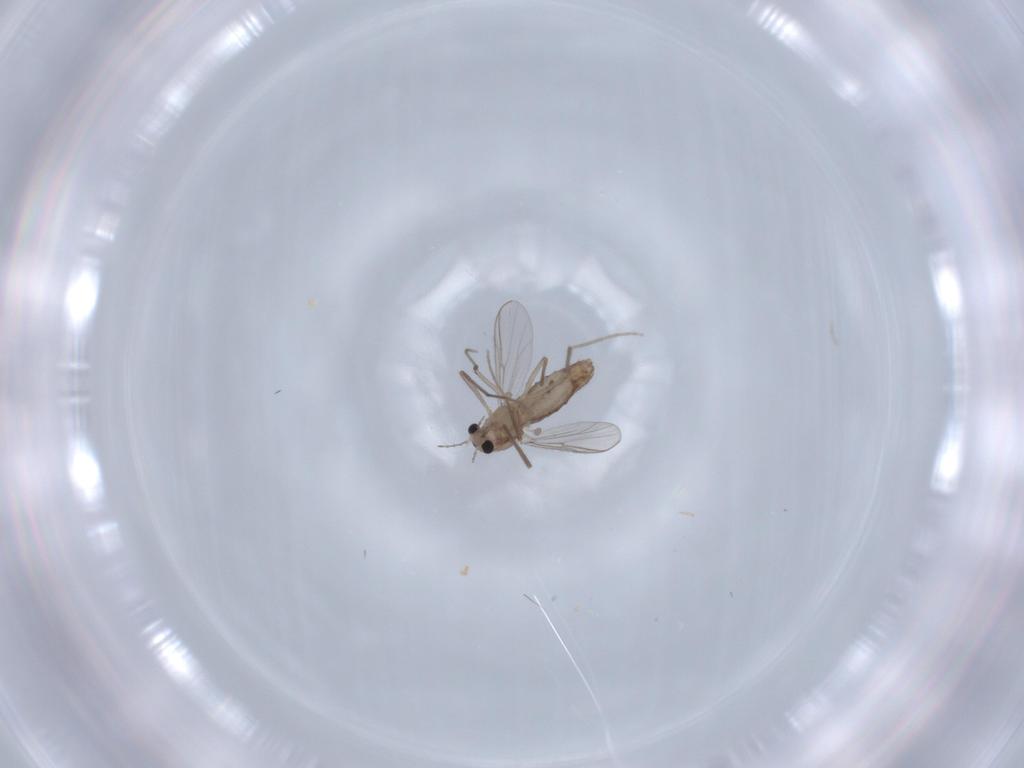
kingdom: Animalia
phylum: Arthropoda
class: Insecta
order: Diptera
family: Chironomidae
